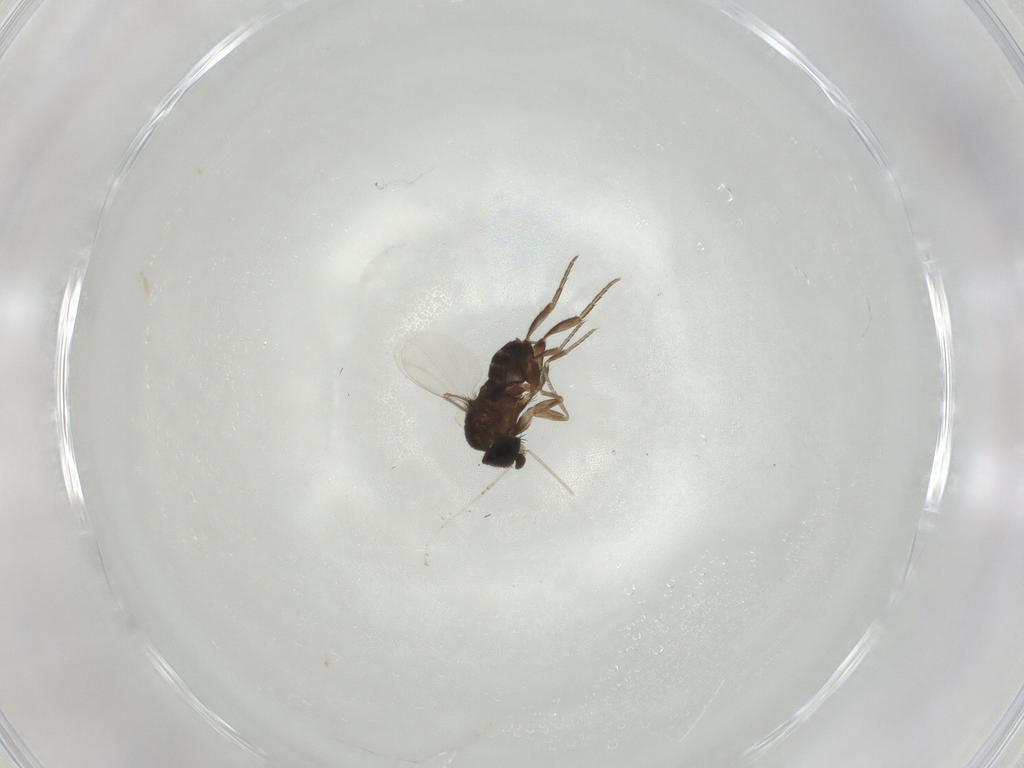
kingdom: Animalia
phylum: Arthropoda
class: Insecta
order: Diptera
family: Phoridae
